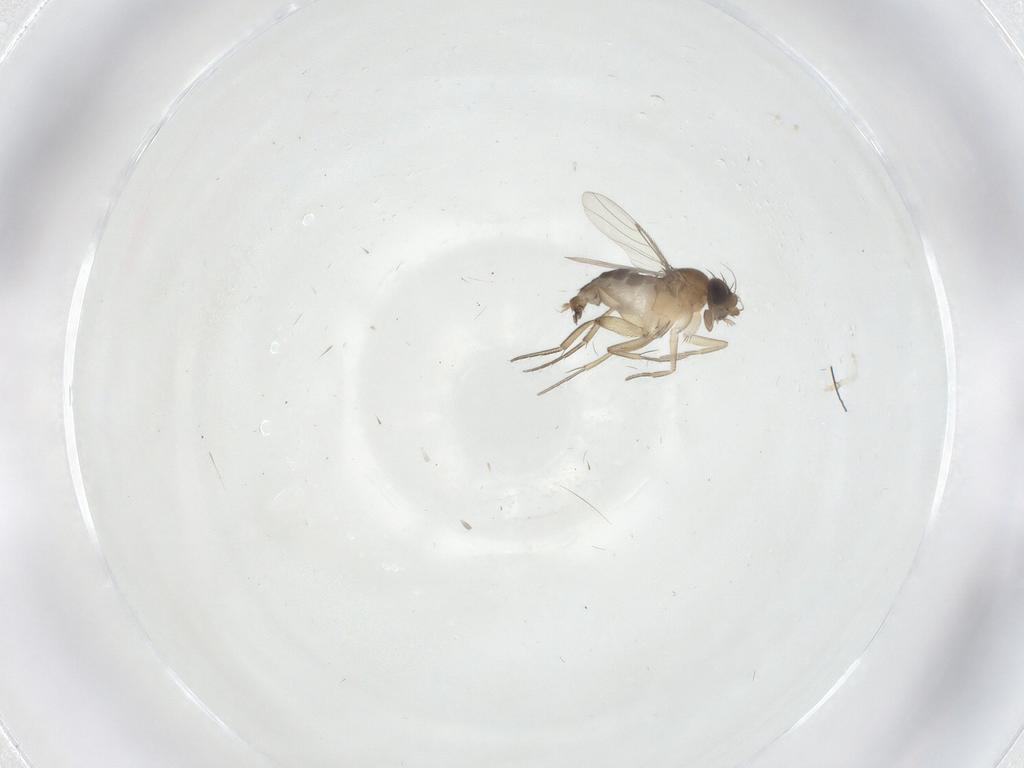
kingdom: Animalia
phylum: Arthropoda
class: Insecta
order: Diptera
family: Phoridae
